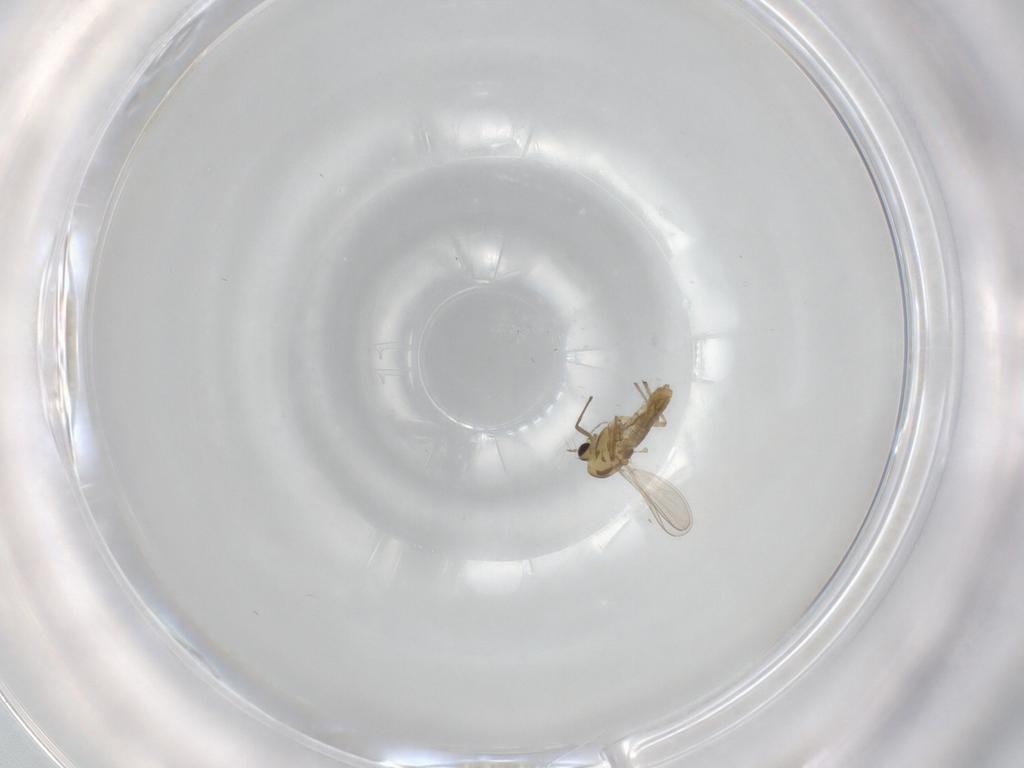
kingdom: Animalia
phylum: Arthropoda
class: Insecta
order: Diptera
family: Chironomidae
